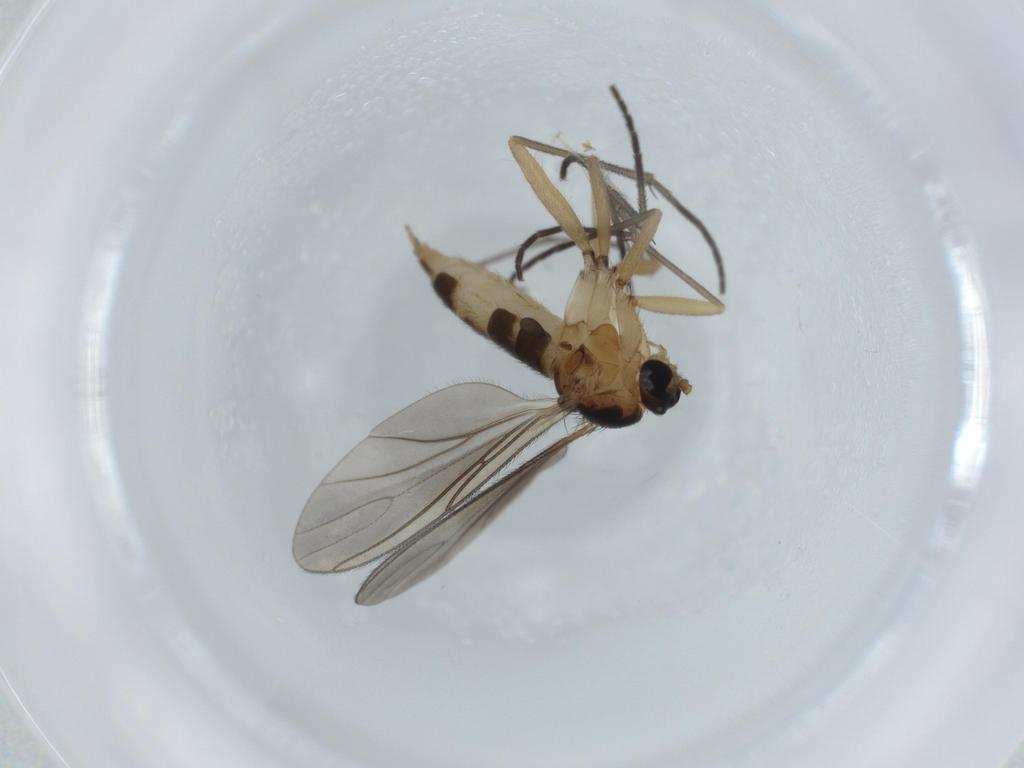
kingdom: Animalia
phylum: Arthropoda
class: Insecta
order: Diptera
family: Sciaridae
